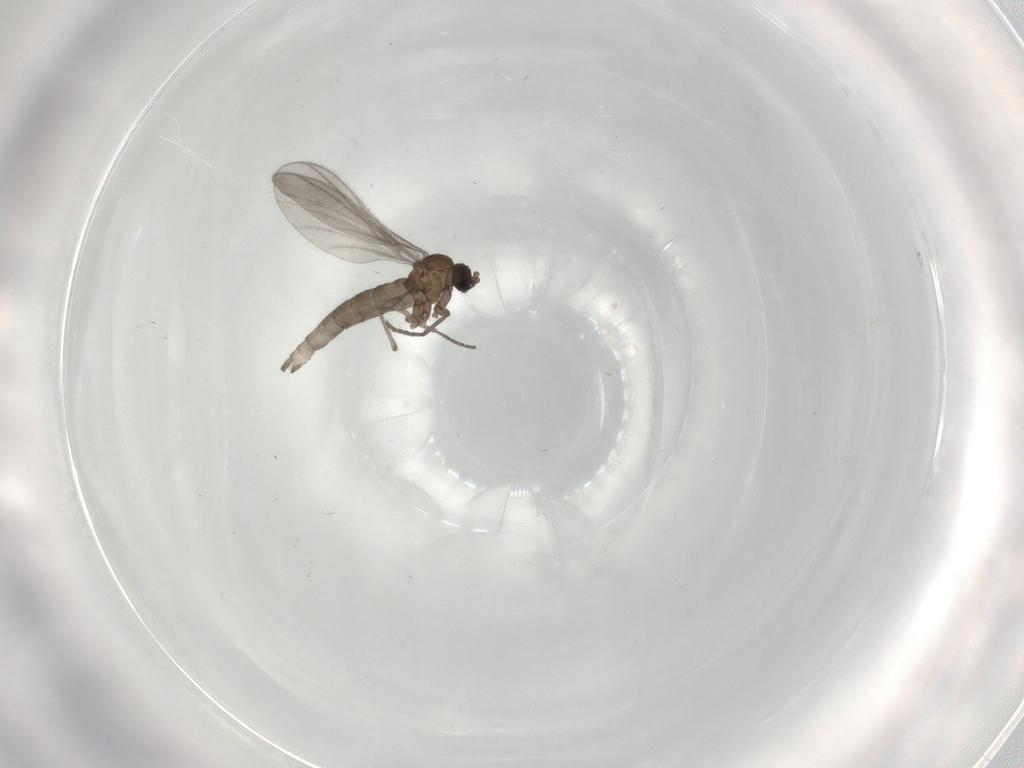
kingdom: Animalia
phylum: Arthropoda
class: Insecta
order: Diptera
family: Sciaridae
